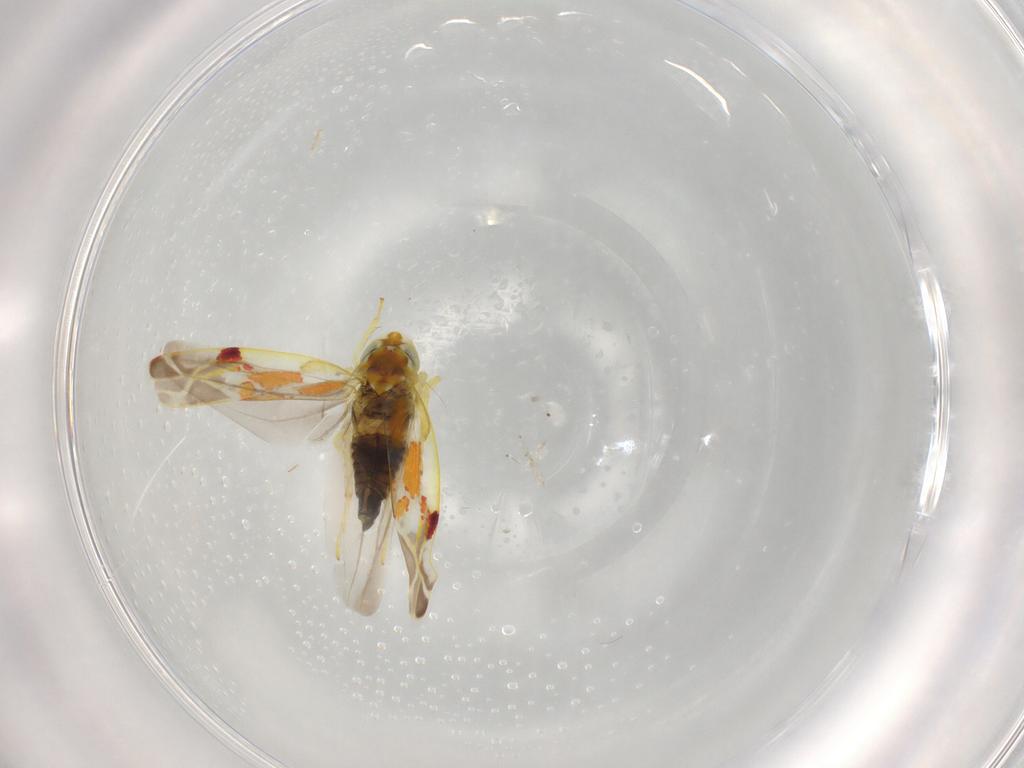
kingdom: Animalia
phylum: Arthropoda
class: Insecta
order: Hemiptera
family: Cicadellidae
